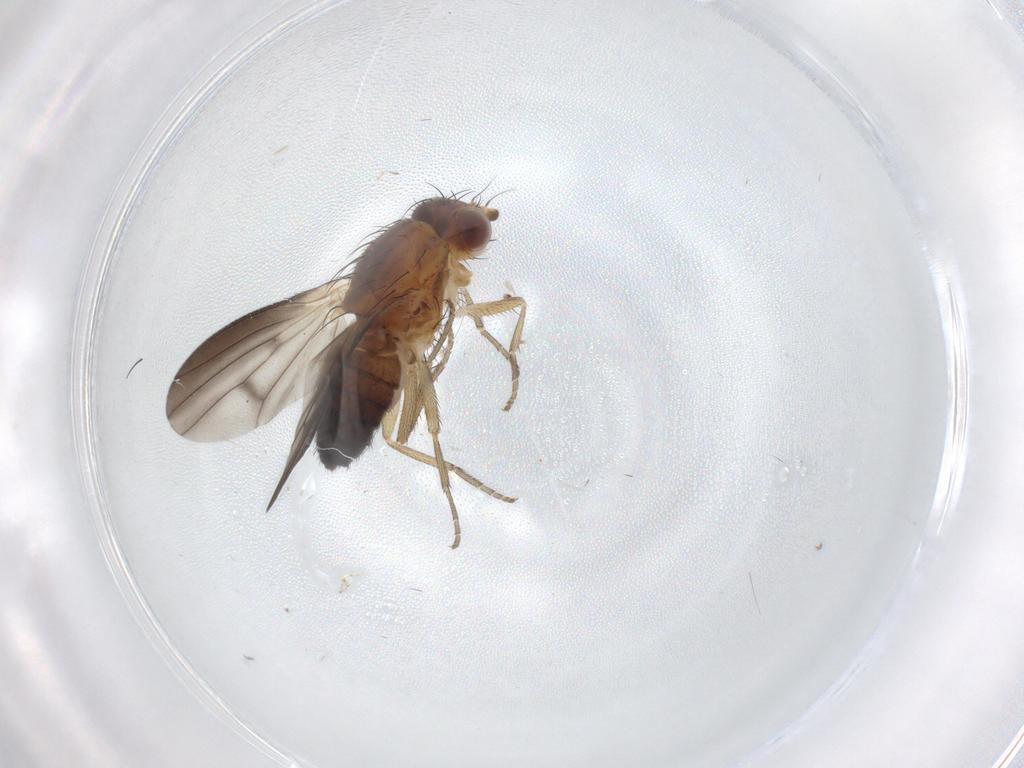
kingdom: Animalia
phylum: Arthropoda
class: Insecta
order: Diptera
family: Heleomyzidae
